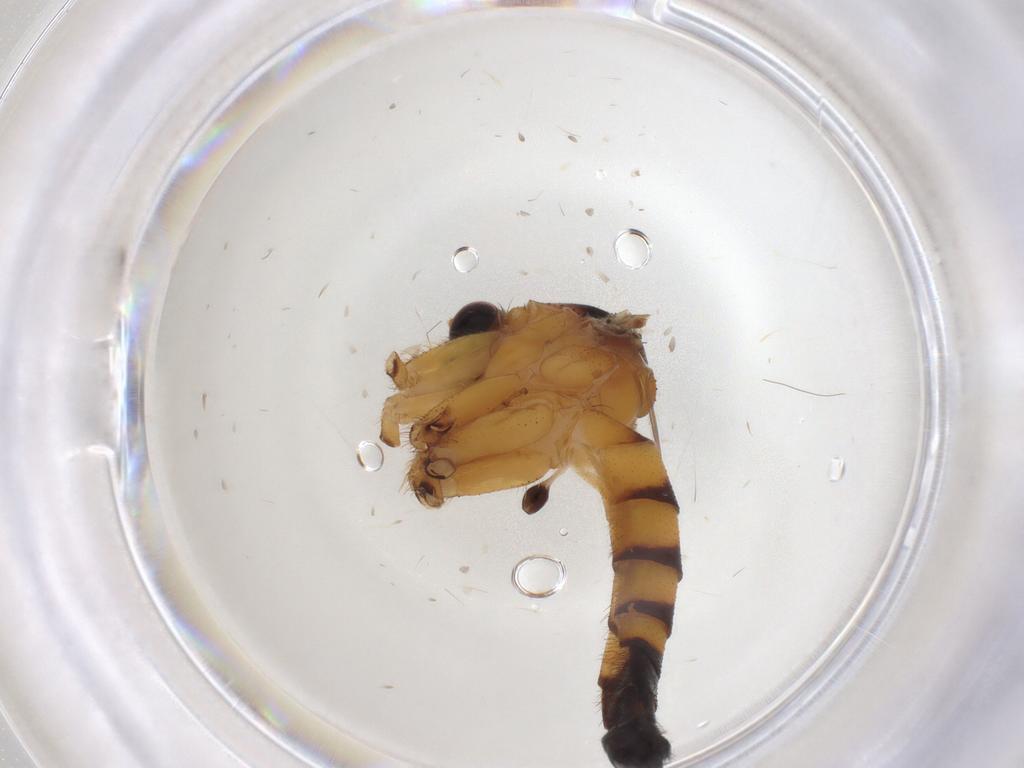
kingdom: Animalia
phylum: Arthropoda
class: Insecta
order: Diptera
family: Mycetophilidae
